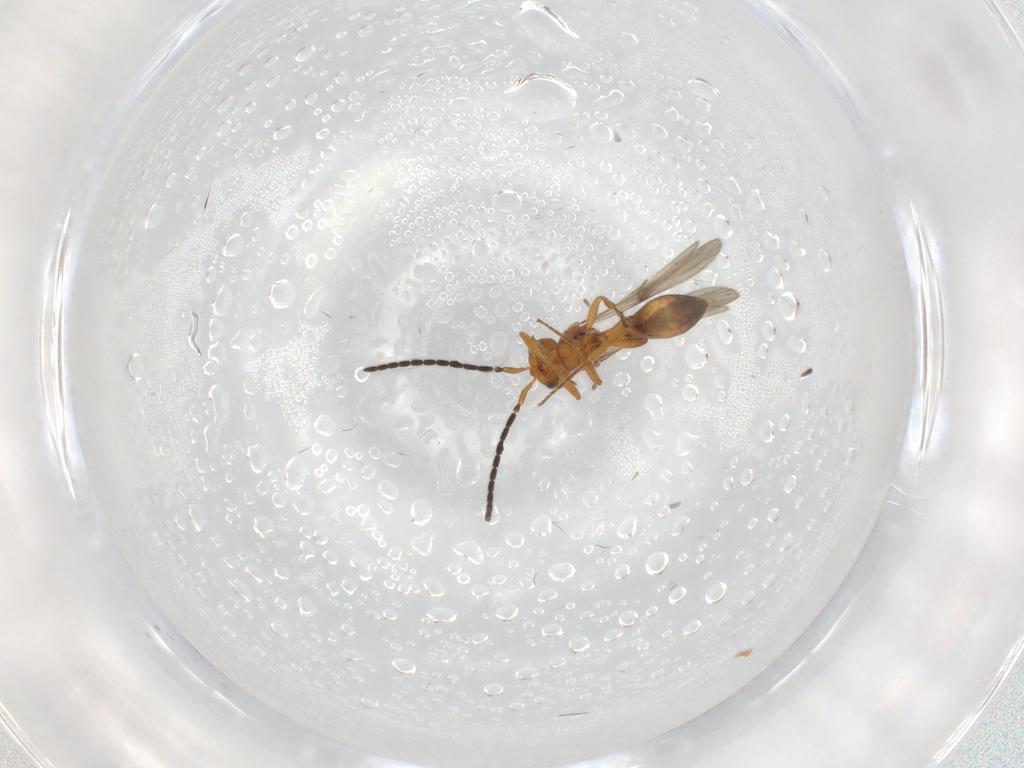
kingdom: Animalia
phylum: Arthropoda
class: Insecta
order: Hymenoptera
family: Scelionidae
